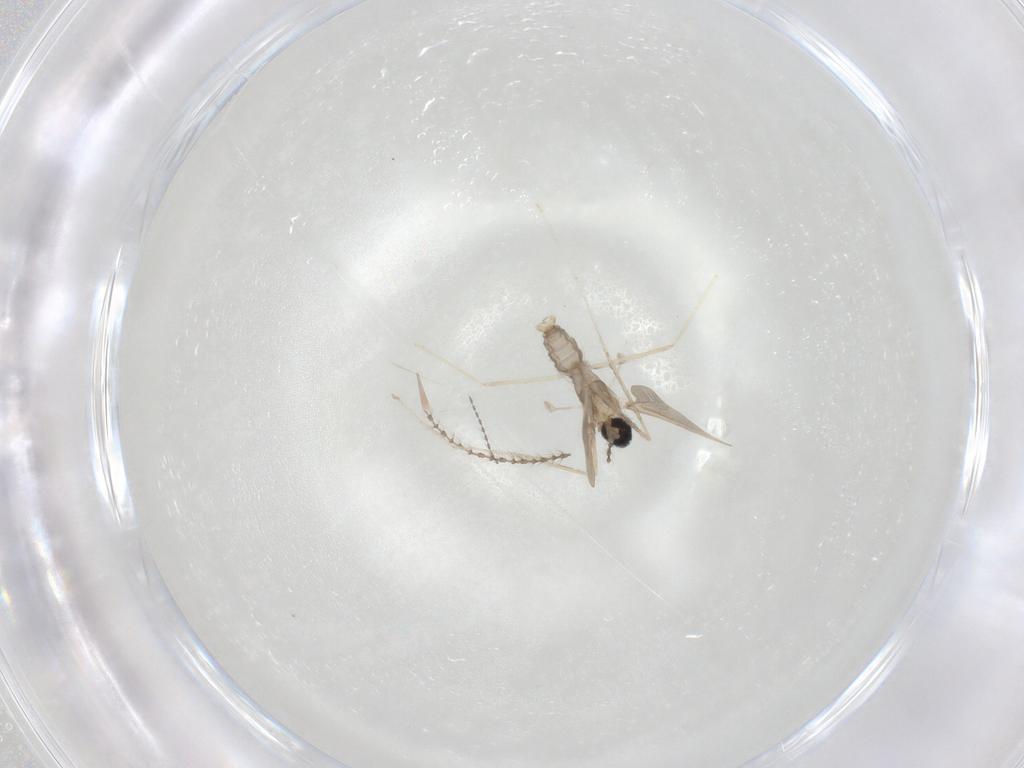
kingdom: Animalia
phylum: Arthropoda
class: Insecta
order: Diptera
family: Cecidomyiidae
